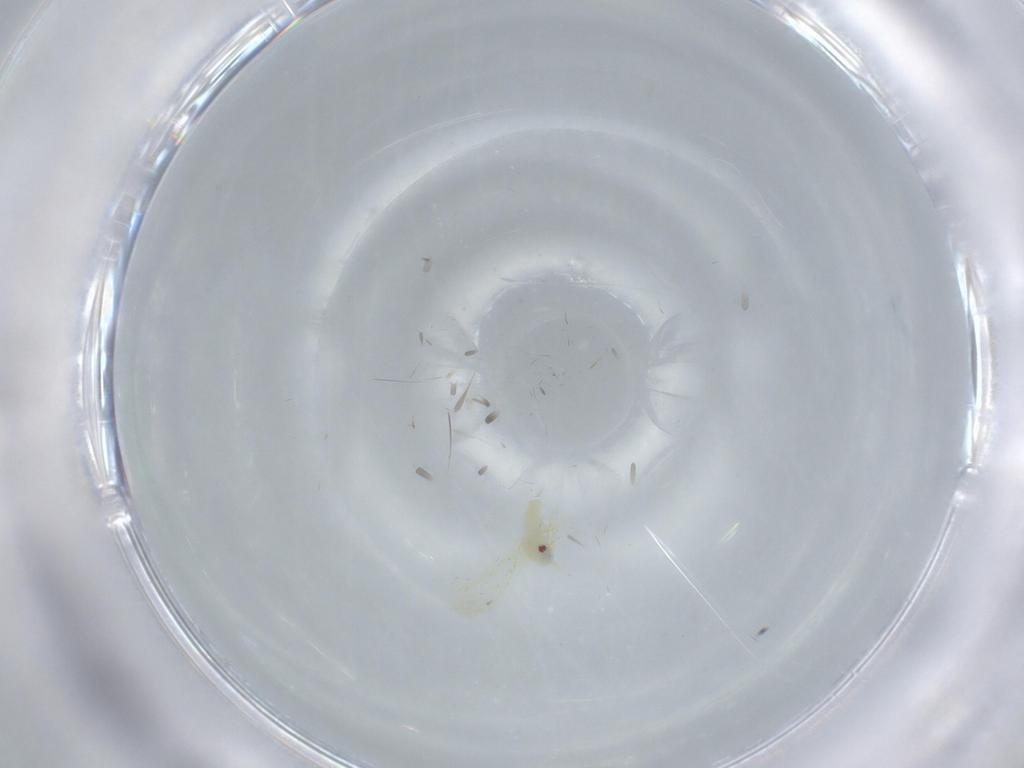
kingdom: Animalia
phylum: Arthropoda
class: Insecta
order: Hemiptera
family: Aleyrodidae
